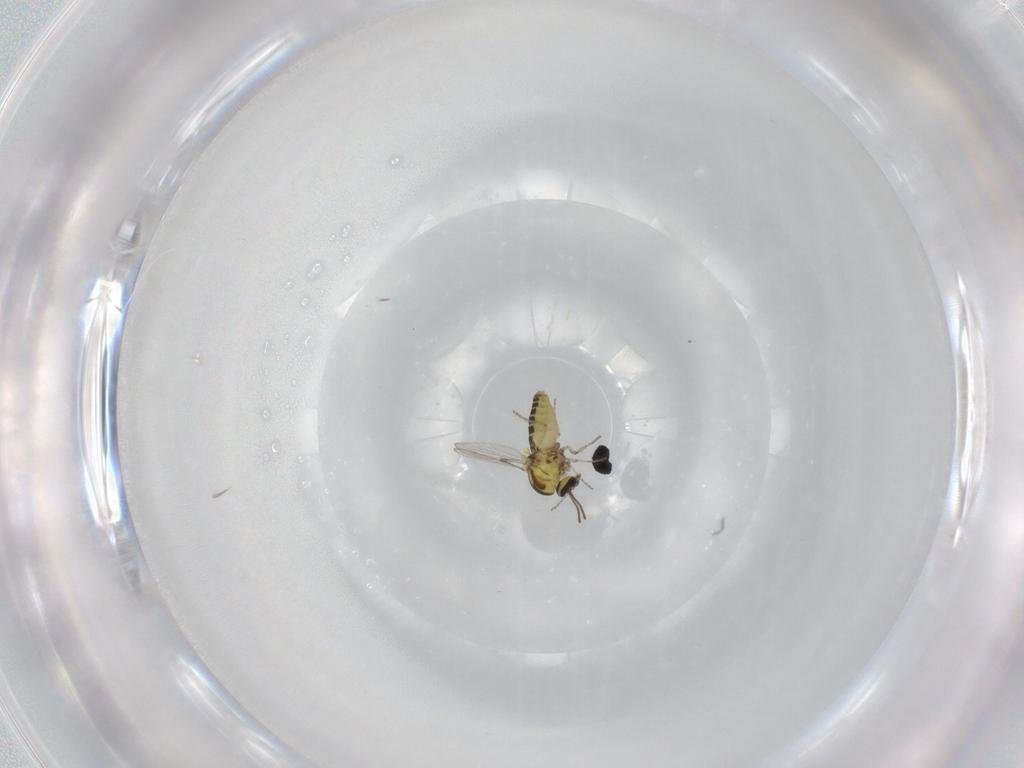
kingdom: Animalia
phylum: Arthropoda
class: Insecta
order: Diptera
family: Ceratopogonidae
